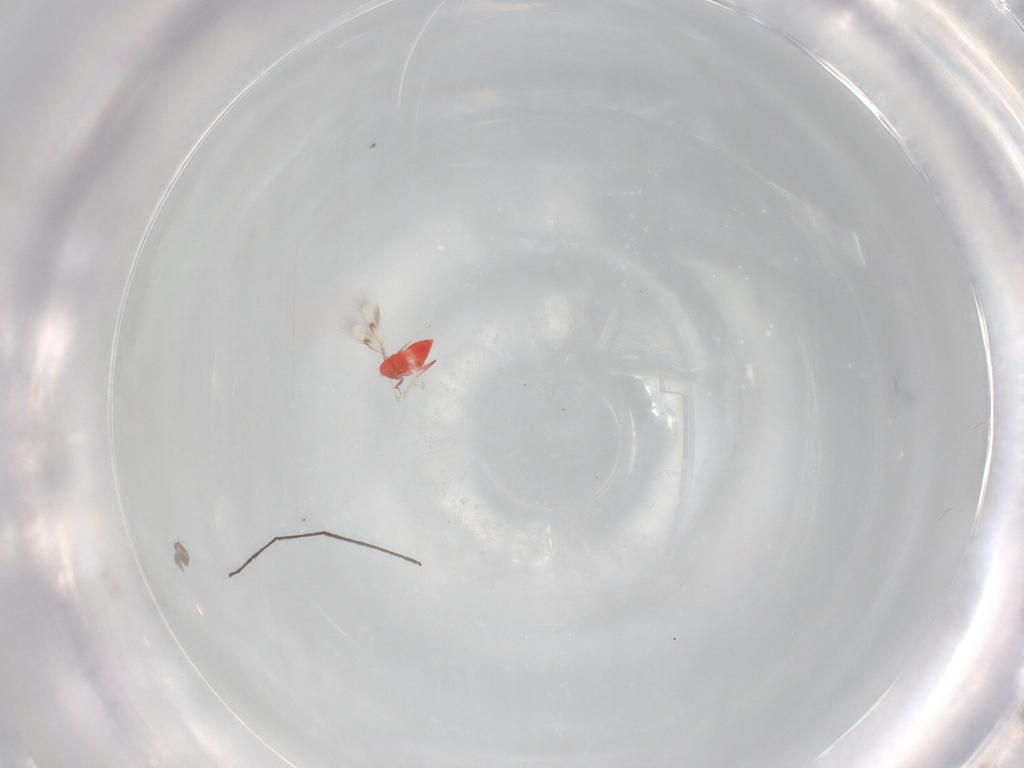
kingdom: Animalia
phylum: Arthropoda
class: Insecta
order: Hymenoptera
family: Trichogrammatidae
